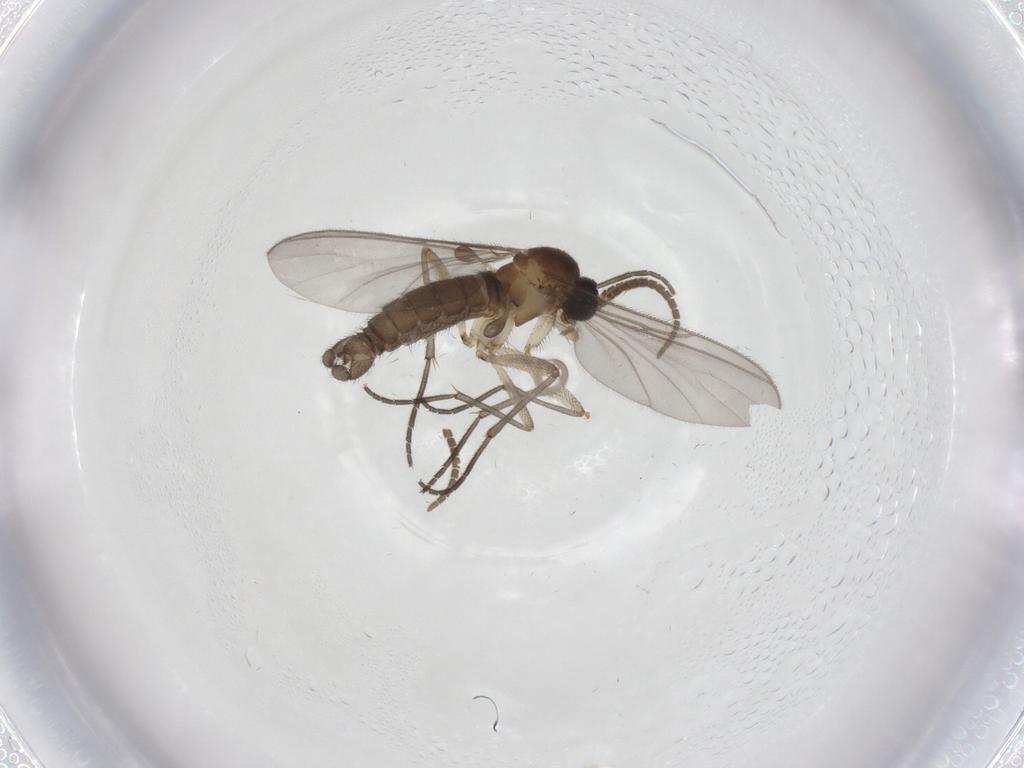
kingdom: Animalia
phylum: Arthropoda
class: Insecta
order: Diptera
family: Limoniidae
